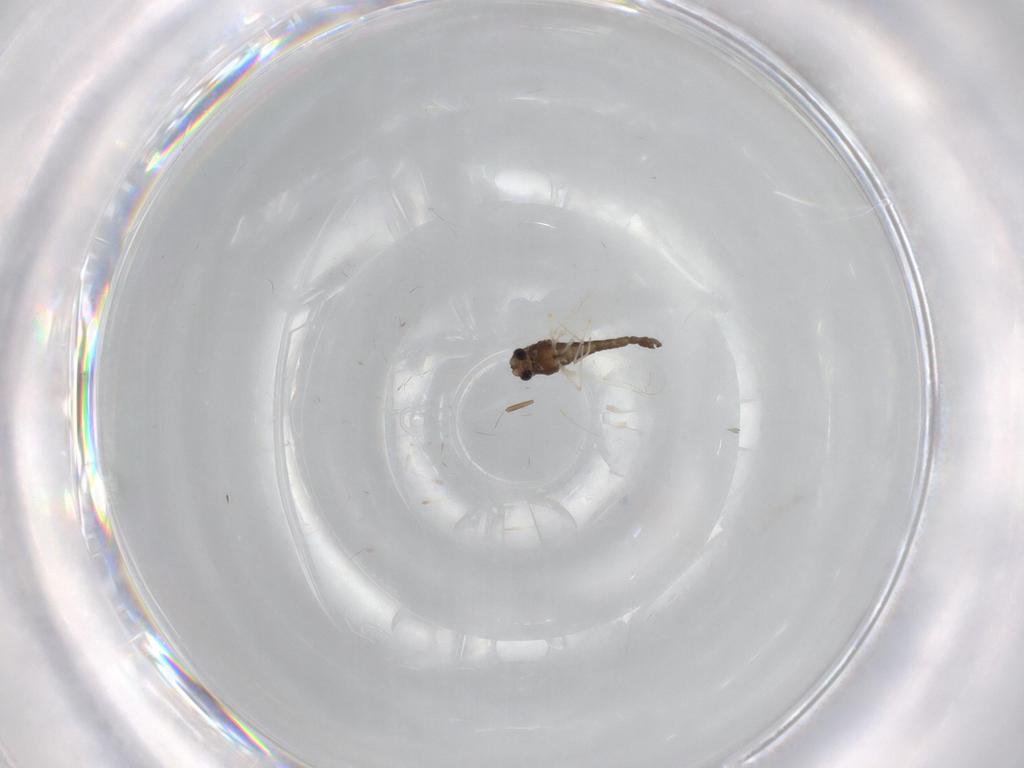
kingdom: Animalia
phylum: Arthropoda
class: Insecta
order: Diptera
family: Chironomidae
